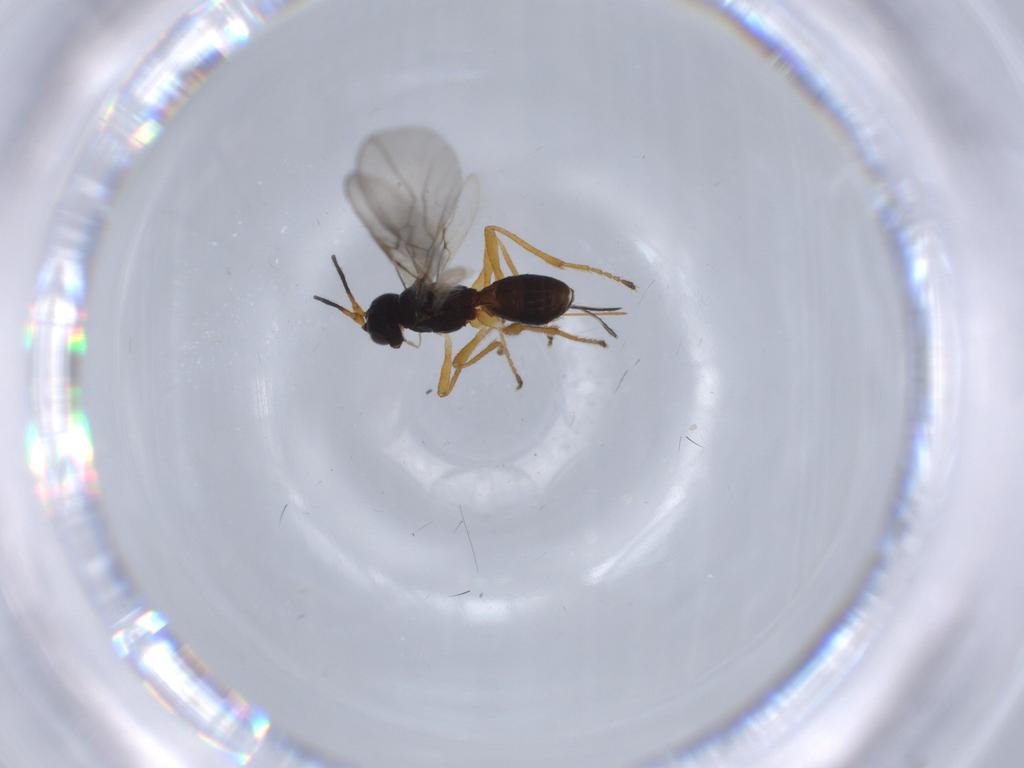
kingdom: Animalia
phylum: Arthropoda
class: Insecta
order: Hymenoptera
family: Braconidae
